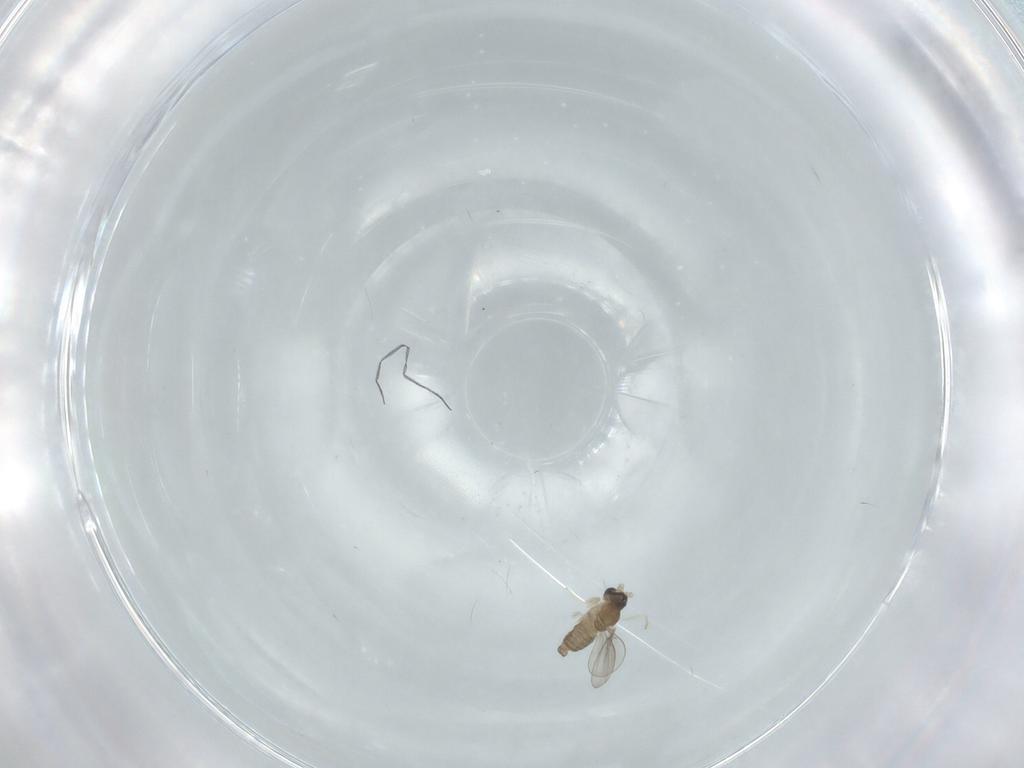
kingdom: Animalia
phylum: Arthropoda
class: Insecta
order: Diptera
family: Cecidomyiidae
